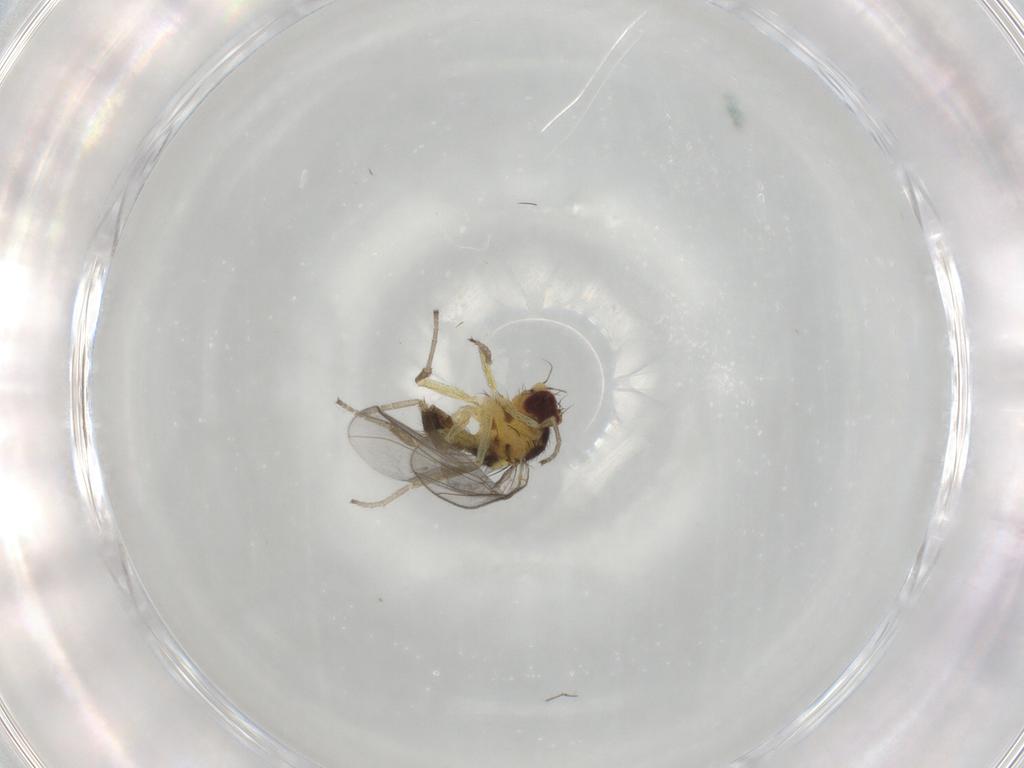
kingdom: Animalia
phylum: Arthropoda
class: Insecta
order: Diptera
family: Agromyzidae
